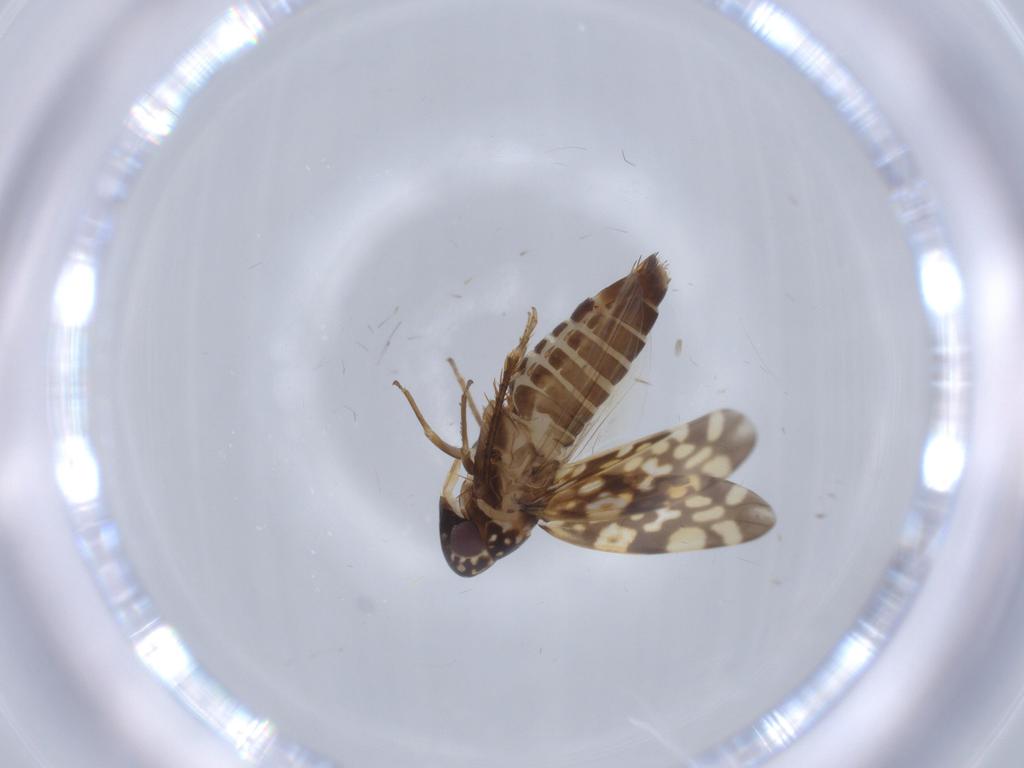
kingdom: Animalia
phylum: Arthropoda
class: Insecta
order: Hemiptera
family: Cicadellidae
